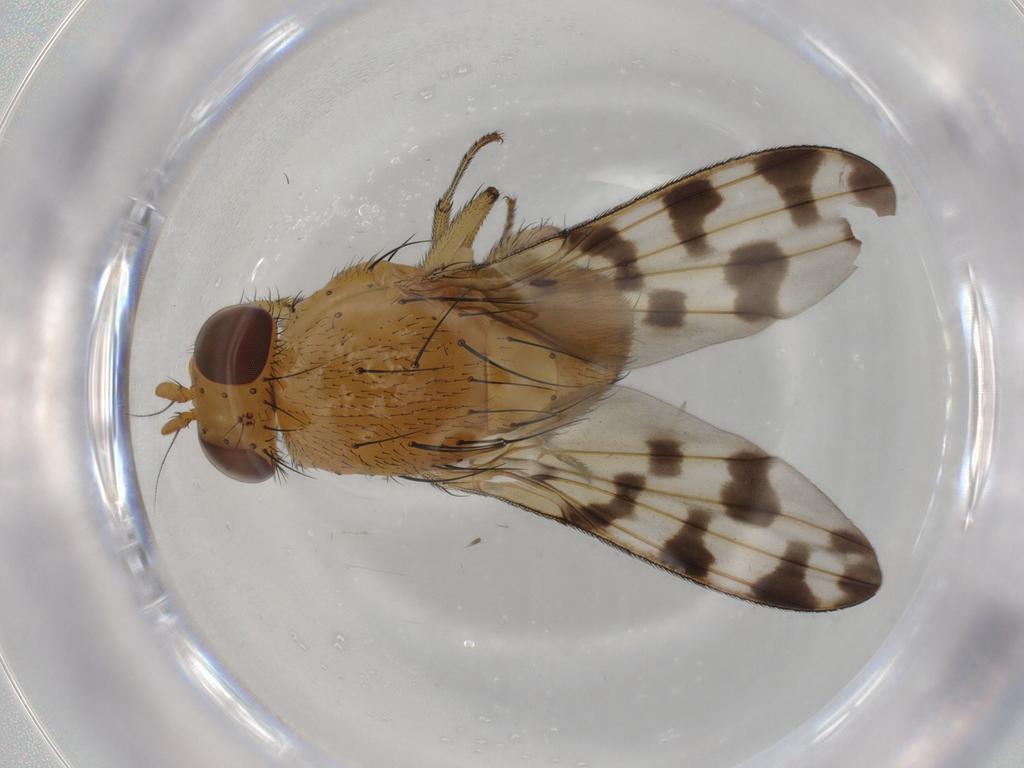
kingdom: Animalia
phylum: Arthropoda
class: Insecta
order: Diptera
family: Phoridae
